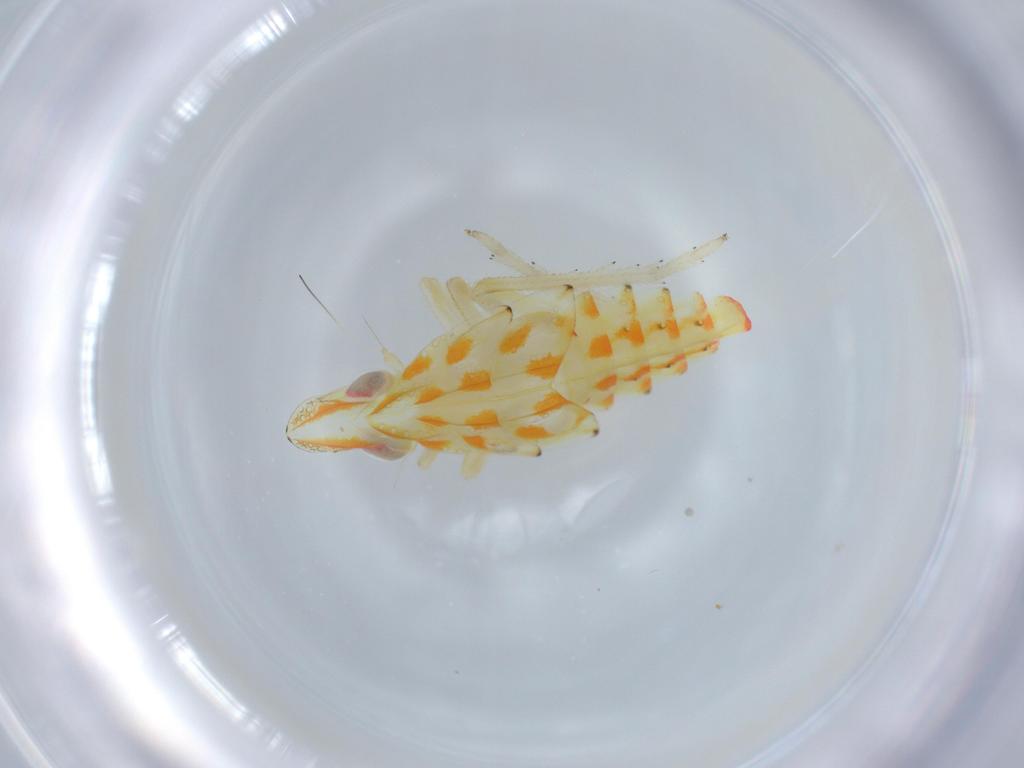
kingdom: Animalia
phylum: Arthropoda
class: Insecta
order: Hemiptera
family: Tropiduchidae
